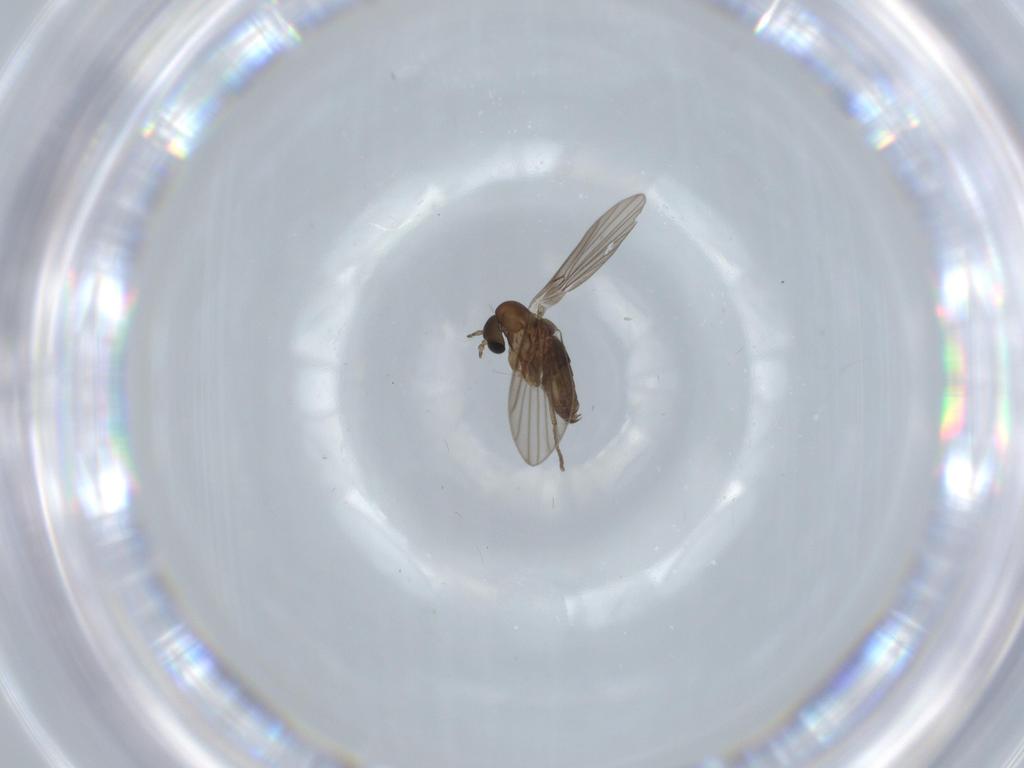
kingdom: Animalia
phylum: Arthropoda
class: Insecta
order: Diptera
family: Psychodidae
